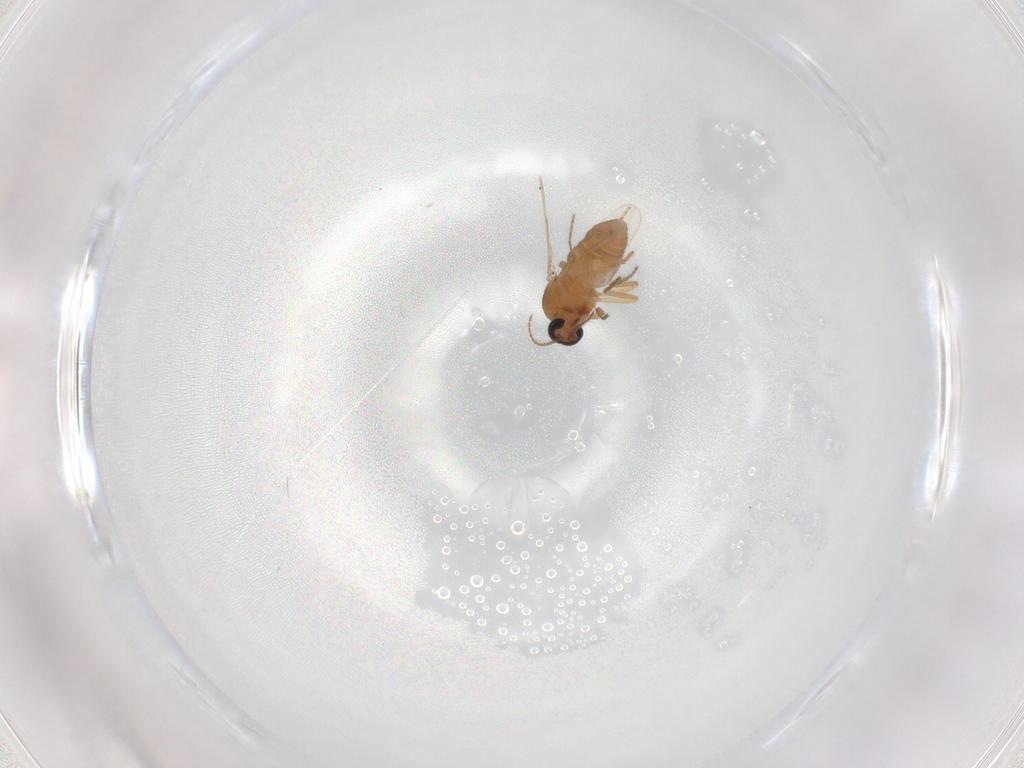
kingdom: Animalia
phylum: Arthropoda
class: Insecta
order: Diptera
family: Ceratopogonidae
